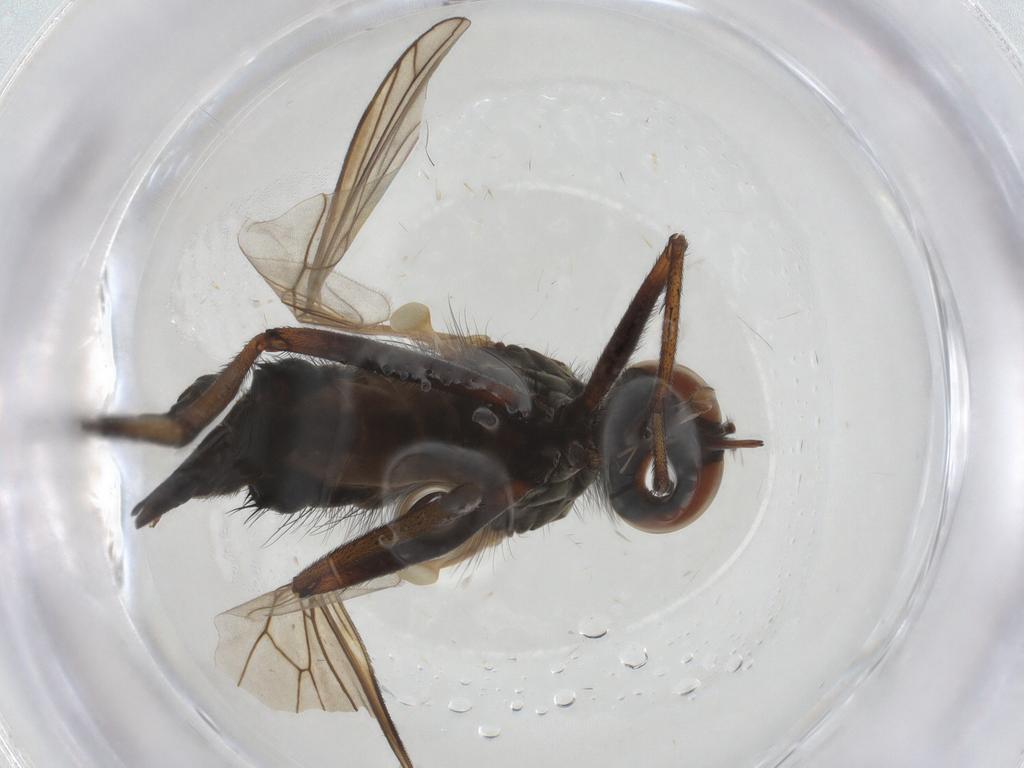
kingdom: Animalia
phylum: Arthropoda
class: Insecta
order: Diptera
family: Empididae
